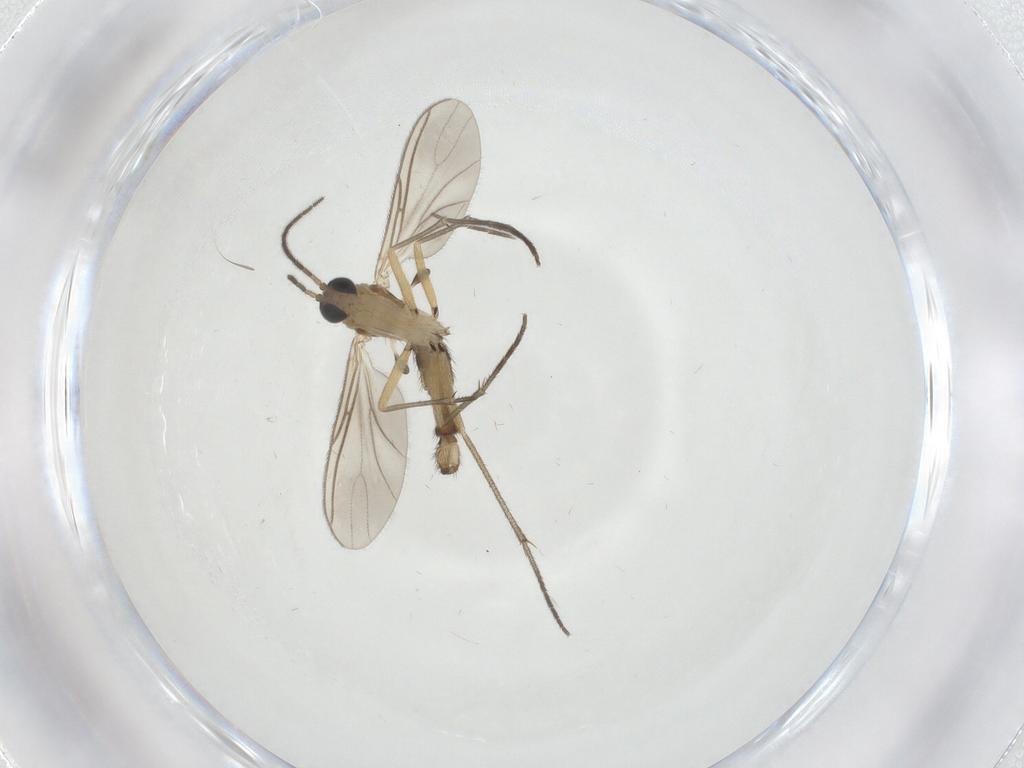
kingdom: Animalia
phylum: Arthropoda
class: Insecta
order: Diptera
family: Sciaridae
